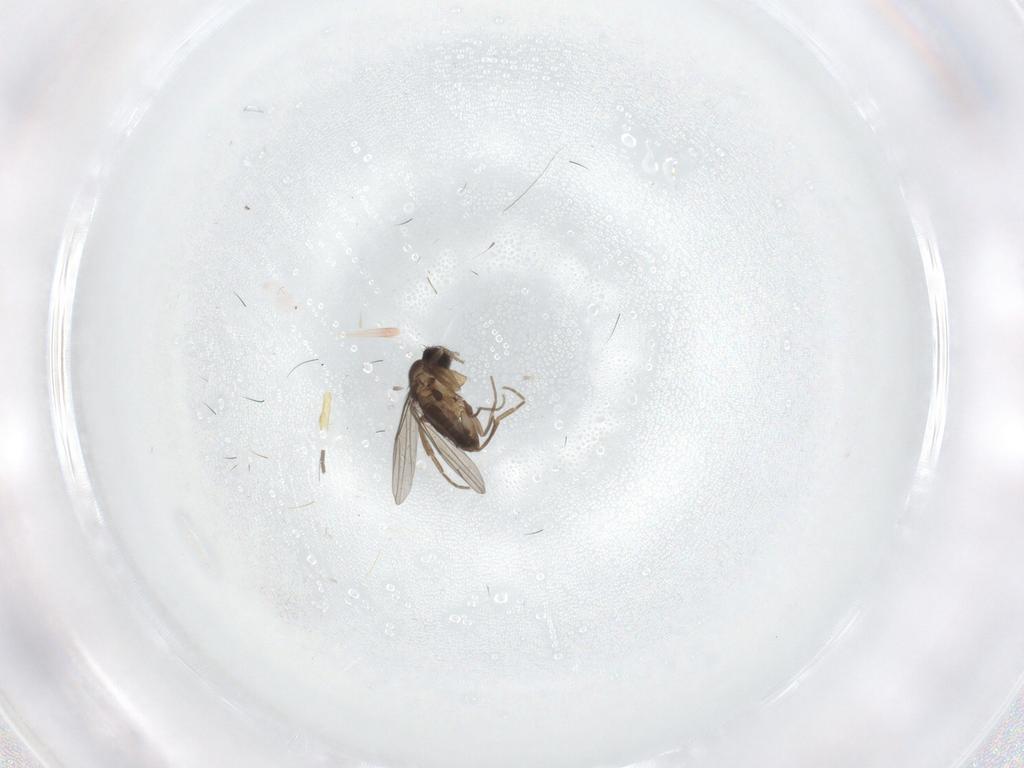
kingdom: Animalia
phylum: Arthropoda
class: Insecta
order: Diptera
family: Phoridae
